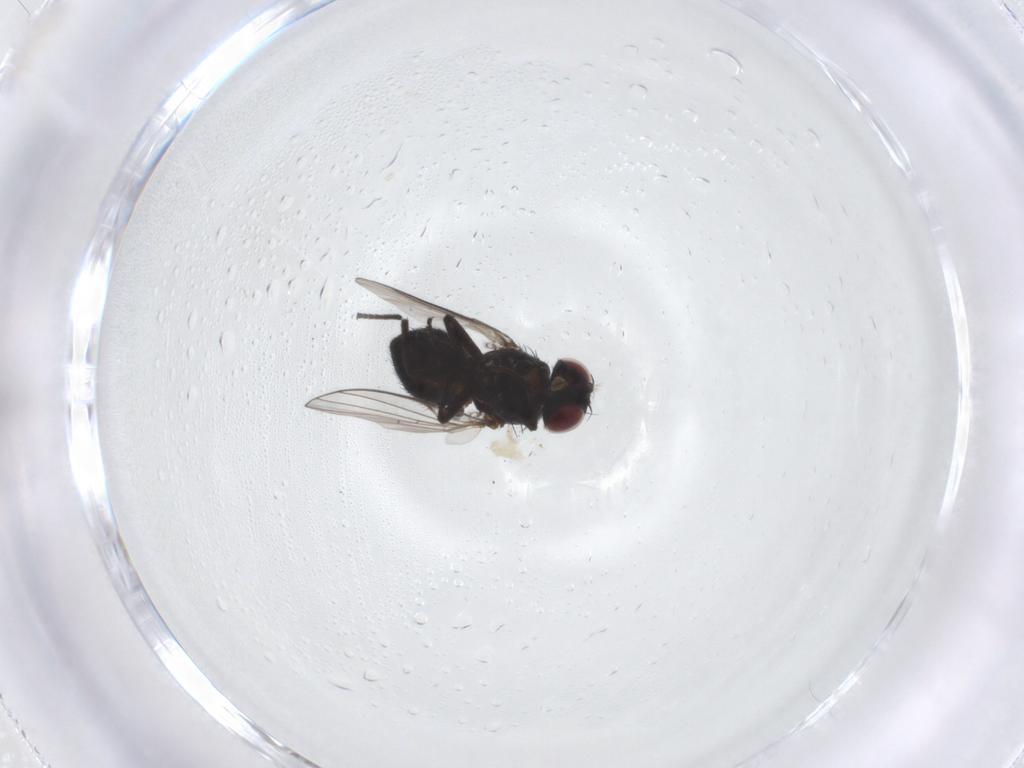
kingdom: Animalia
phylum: Arthropoda
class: Insecta
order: Diptera
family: Agromyzidae
